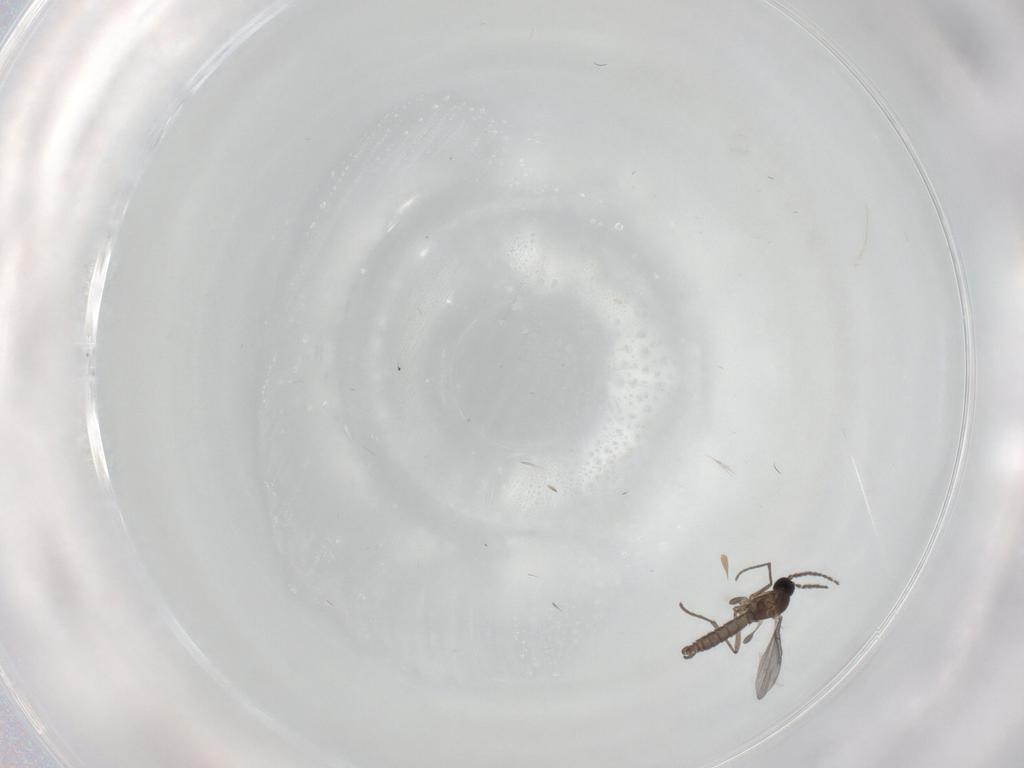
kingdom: Animalia
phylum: Arthropoda
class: Insecta
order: Diptera
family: Sciaridae
